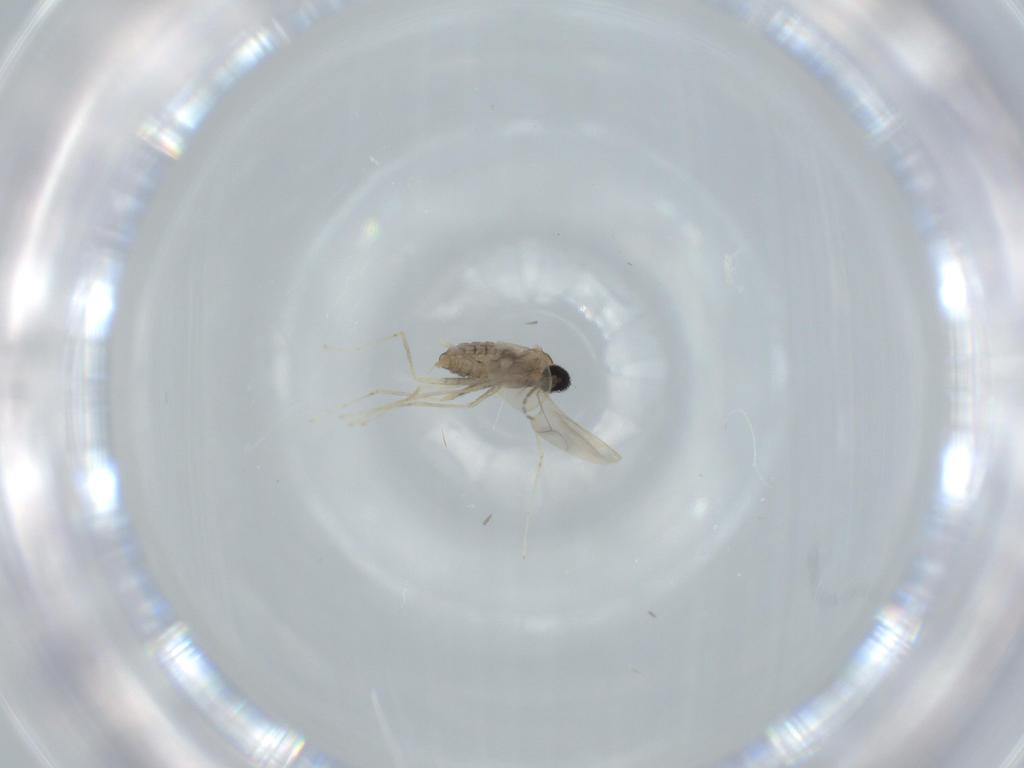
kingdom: Animalia
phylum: Arthropoda
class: Insecta
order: Diptera
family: Cecidomyiidae
